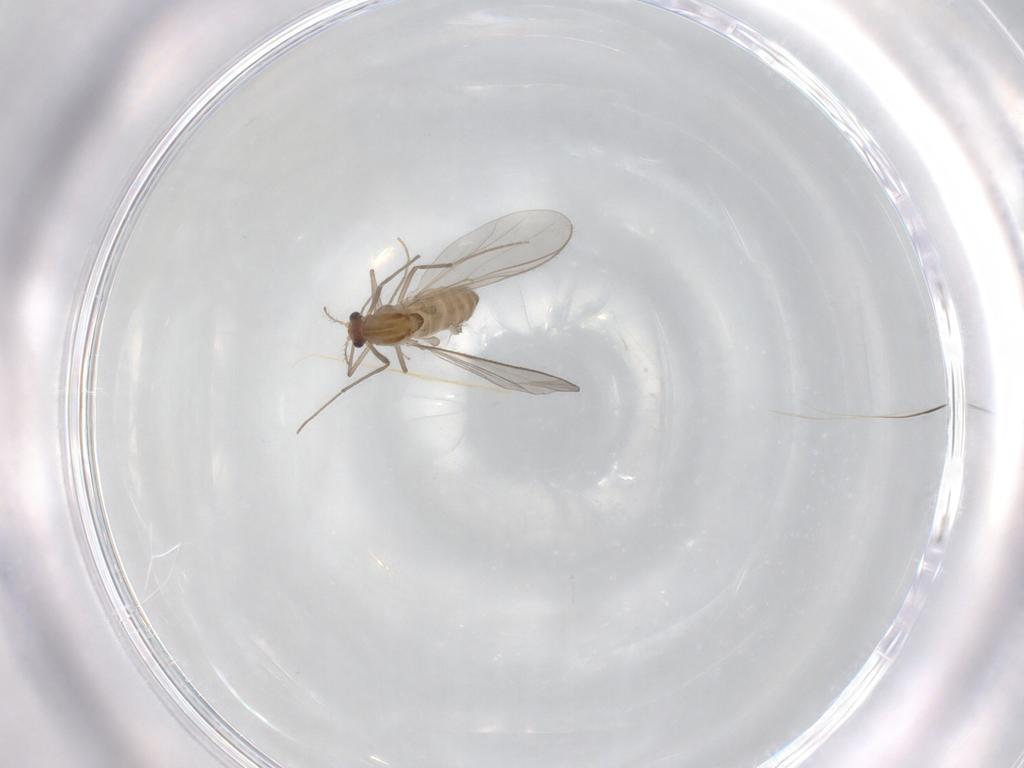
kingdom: Animalia
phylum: Arthropoda
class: Insecta
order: Diptera
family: Chironomidae
